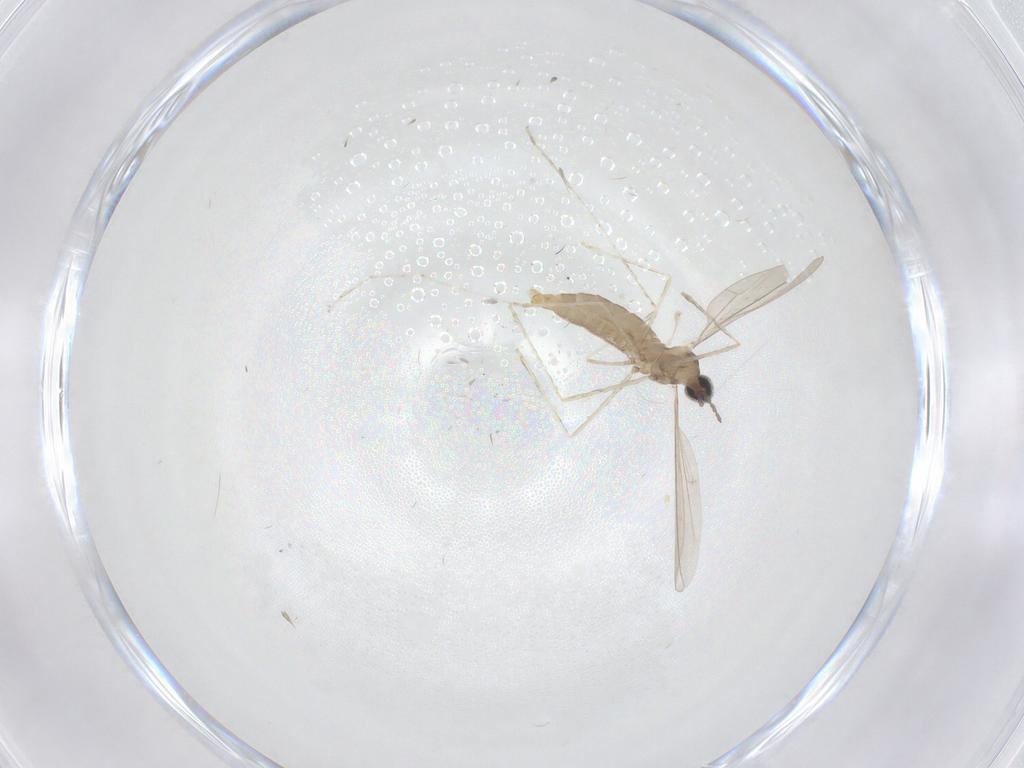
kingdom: Animalia
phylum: Arthropoda
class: Insecta
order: Diptera
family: Cecidomyiidae
